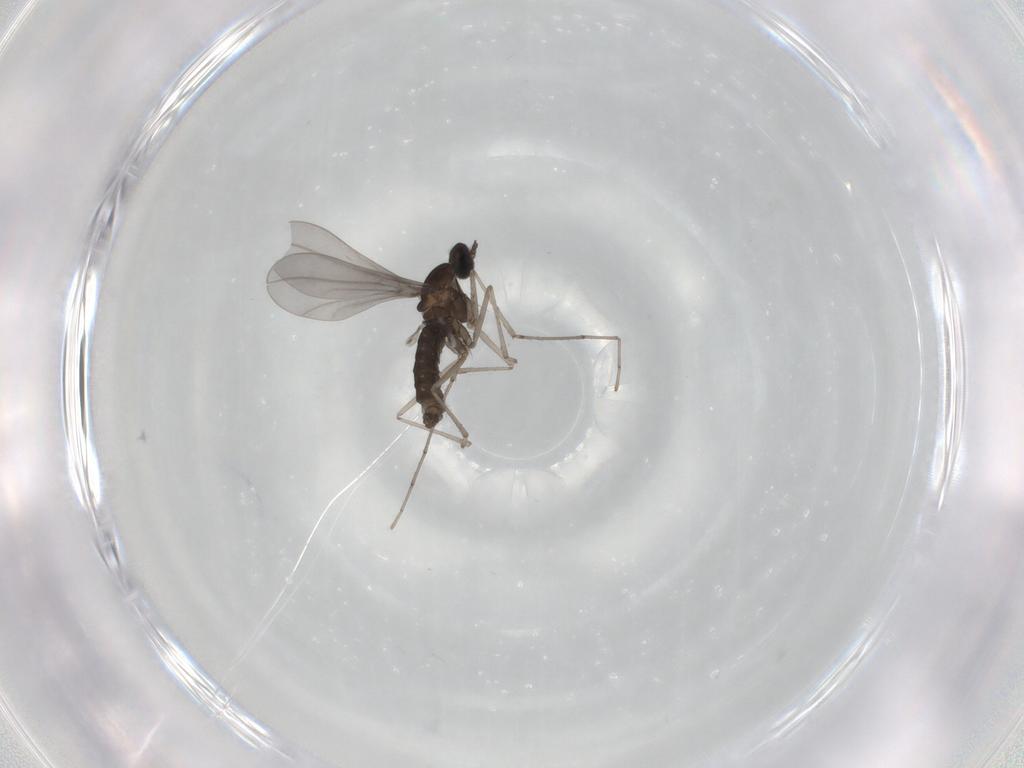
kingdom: Animalia
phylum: Arthropoda
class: Insecta
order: Diptera
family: Cecidomyiidae
